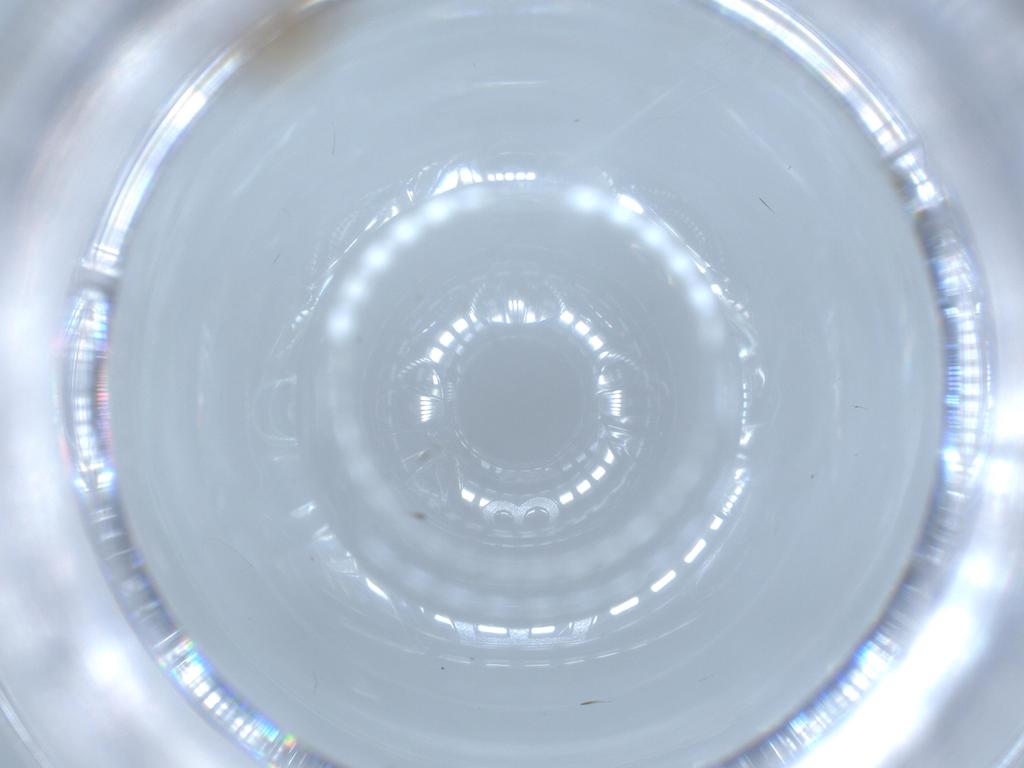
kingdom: Animalia
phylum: Arthropoda
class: Insecta
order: Diptera
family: Chironomidae
